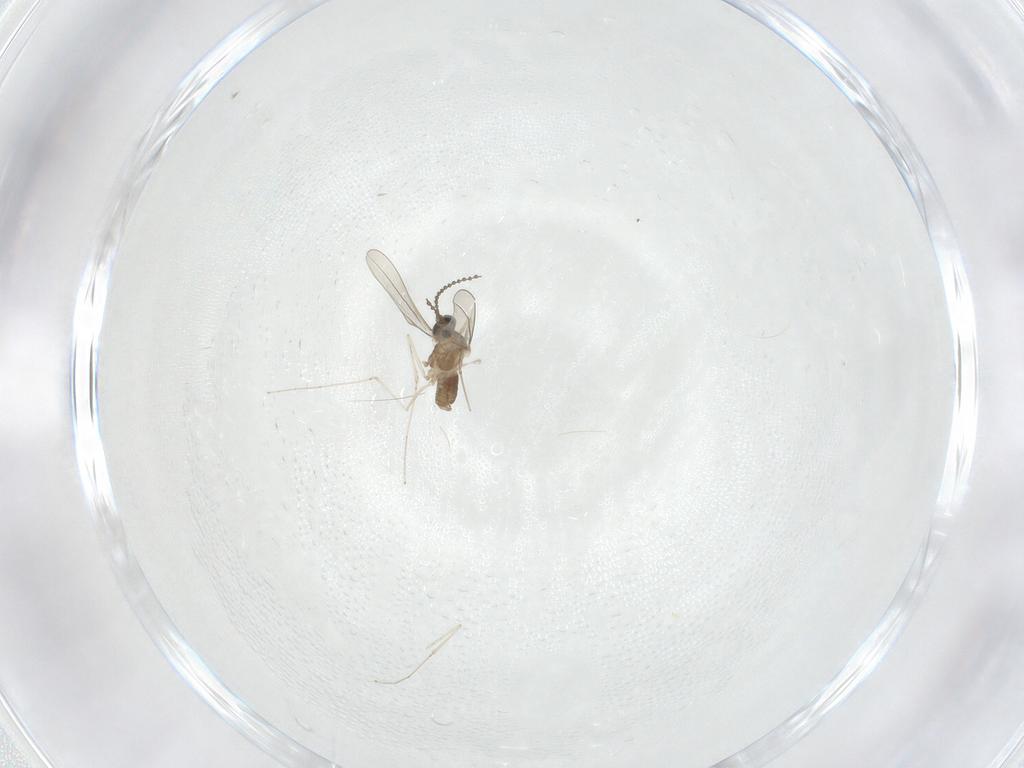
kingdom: Animalia
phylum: Arthropoda
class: Insecta
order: Diptera
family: Cecidomyiidae
